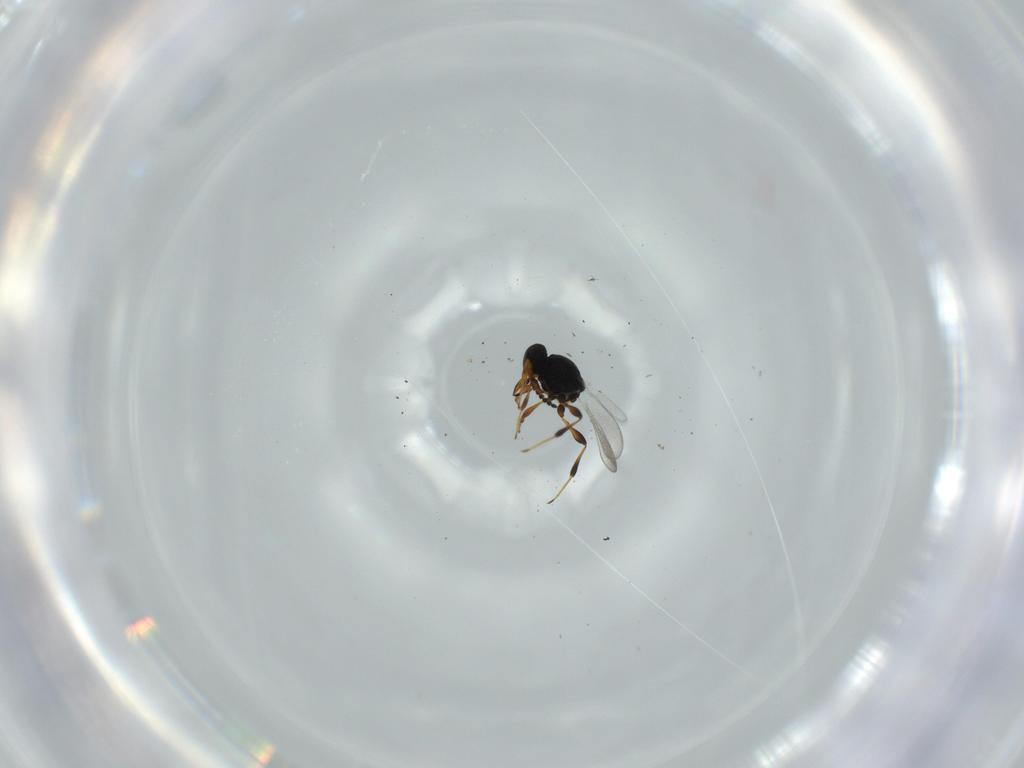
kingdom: Animalia
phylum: Arthropoda
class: Insecta
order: Hymenoptera
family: Platygastridae
